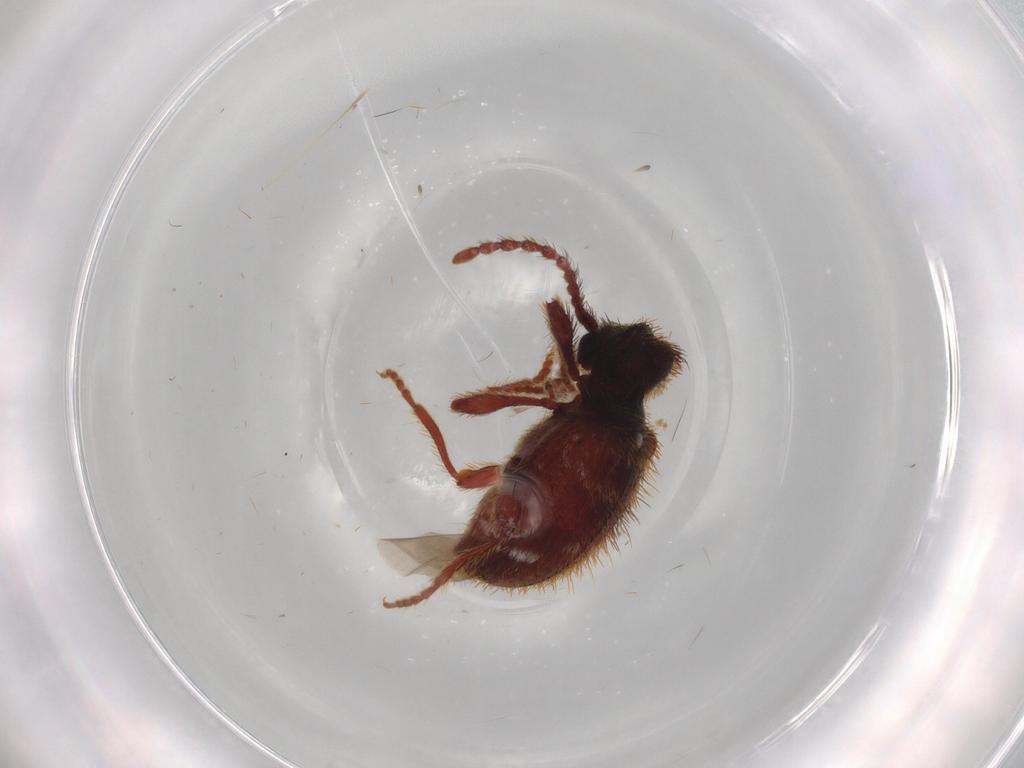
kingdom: Animalia
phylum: Arthropoda
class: Insecta
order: Coleoptera
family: Ptinidae
